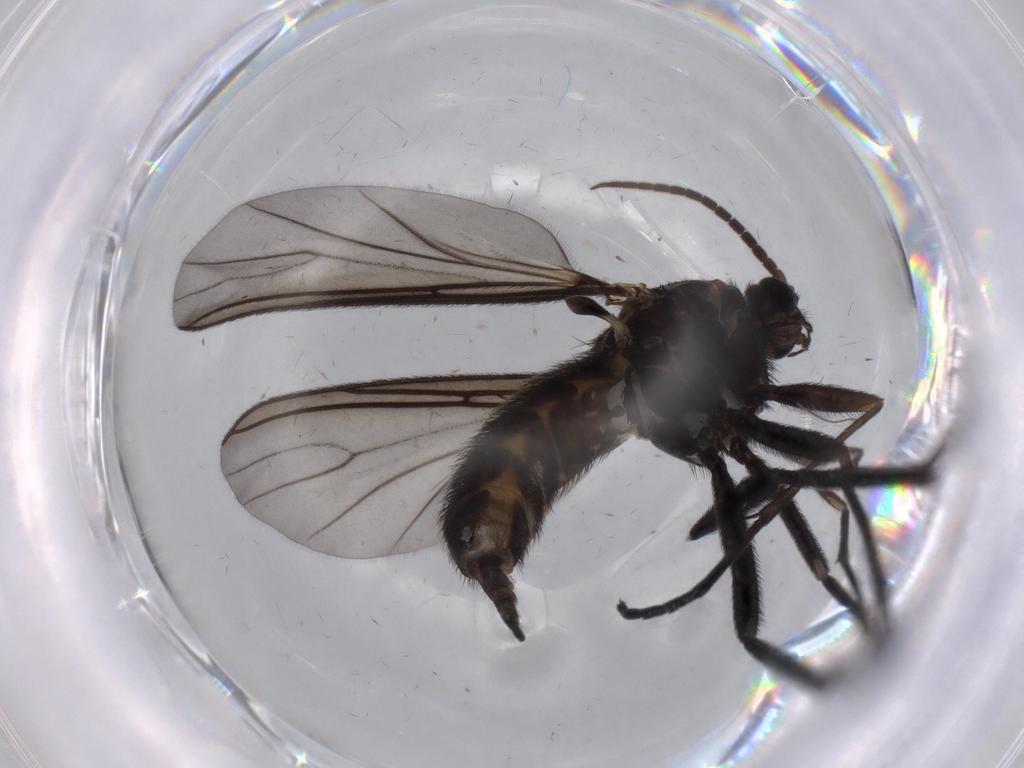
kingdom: Animalia
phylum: Arthropoda
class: Insecta
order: Diptera
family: Sciaridae
